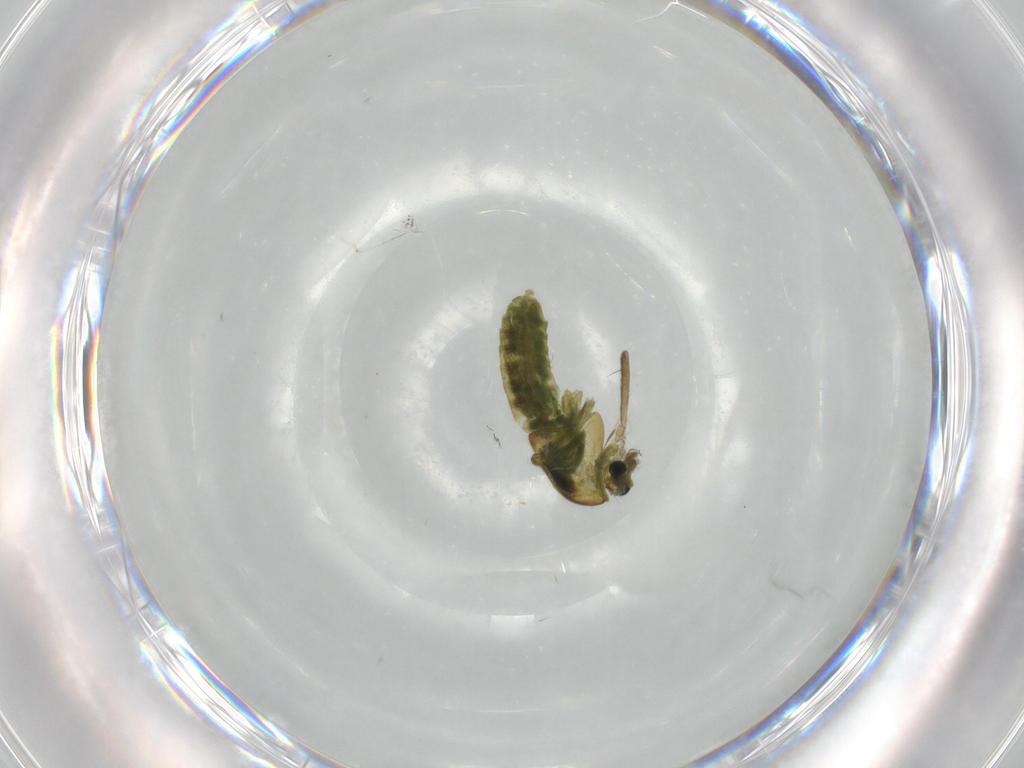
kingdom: Animalia
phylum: Arthropoda
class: Insecta
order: Diptera
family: Chironomidae
